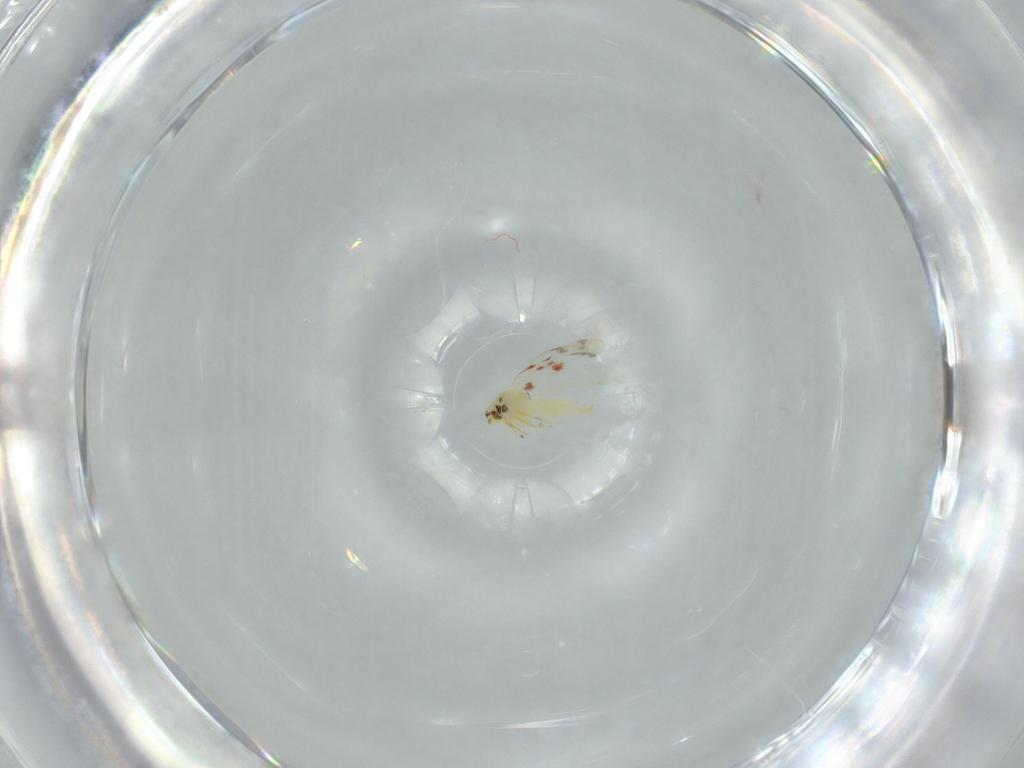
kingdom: Animalia
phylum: Arthropoda
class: Insecta
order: Hemiptera
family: Aleyrodidae
